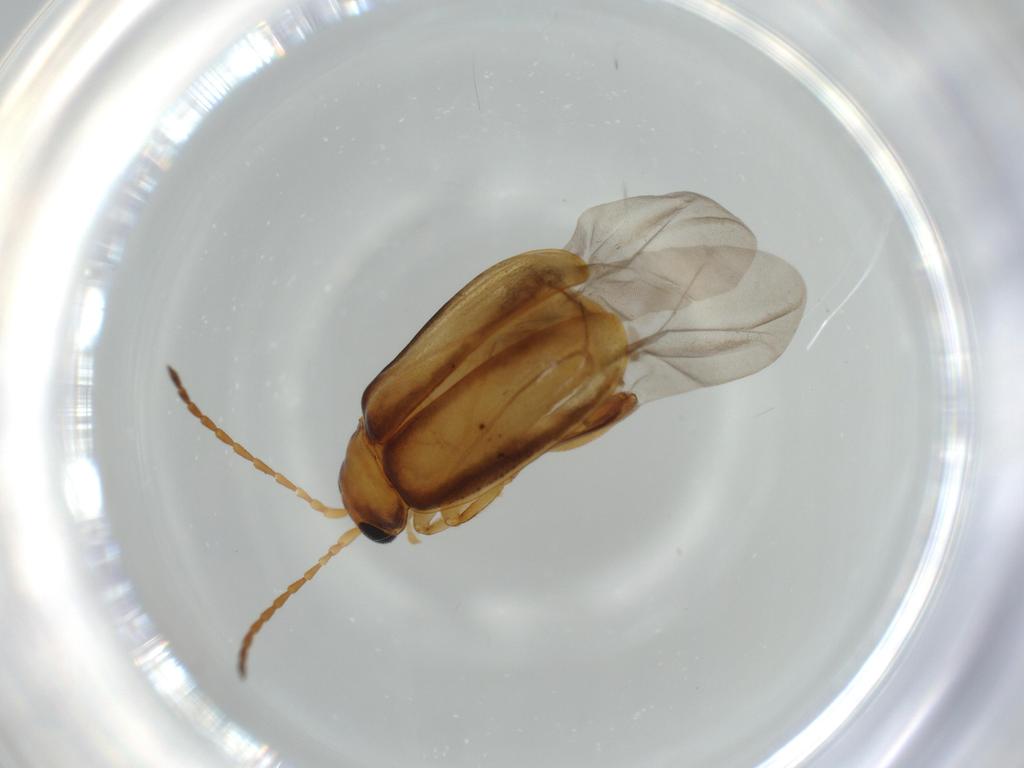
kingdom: Animalia
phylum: Arthropoda
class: Insecta
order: Coleoptera
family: Chrysomelidae
